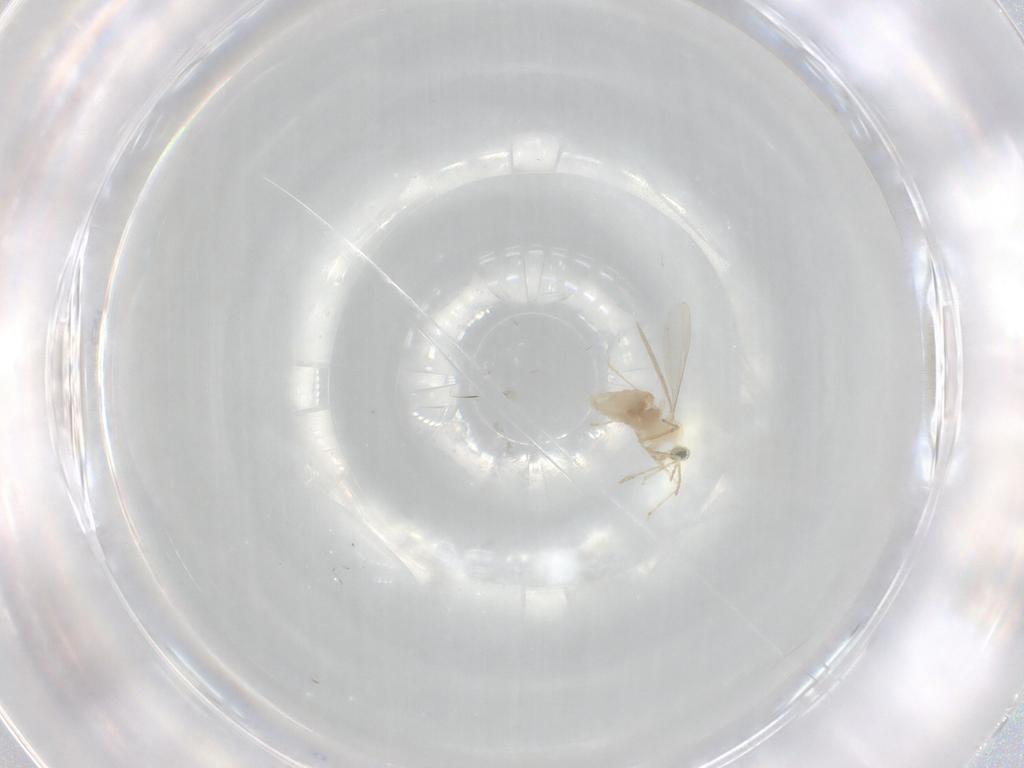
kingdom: Animalia
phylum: Arthropoda
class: Insecta
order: Diptera
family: Cecidomyiidae
